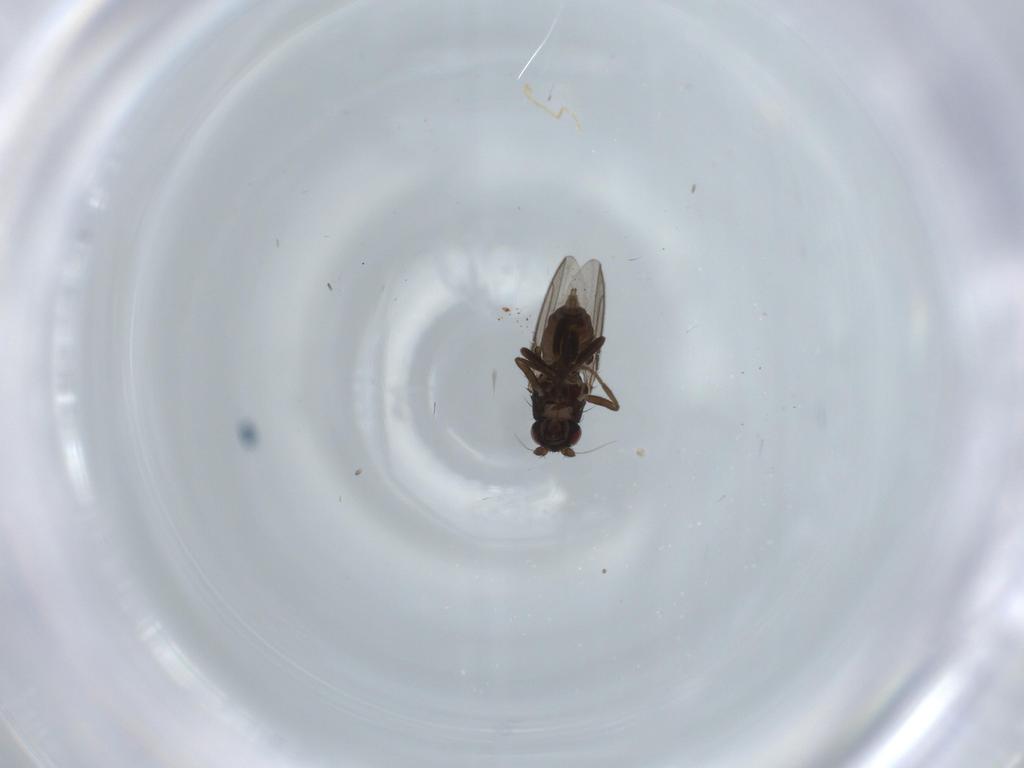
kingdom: Animalia
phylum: Arthropoda
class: Insecta
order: Diptera
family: Sphaeroceridae
